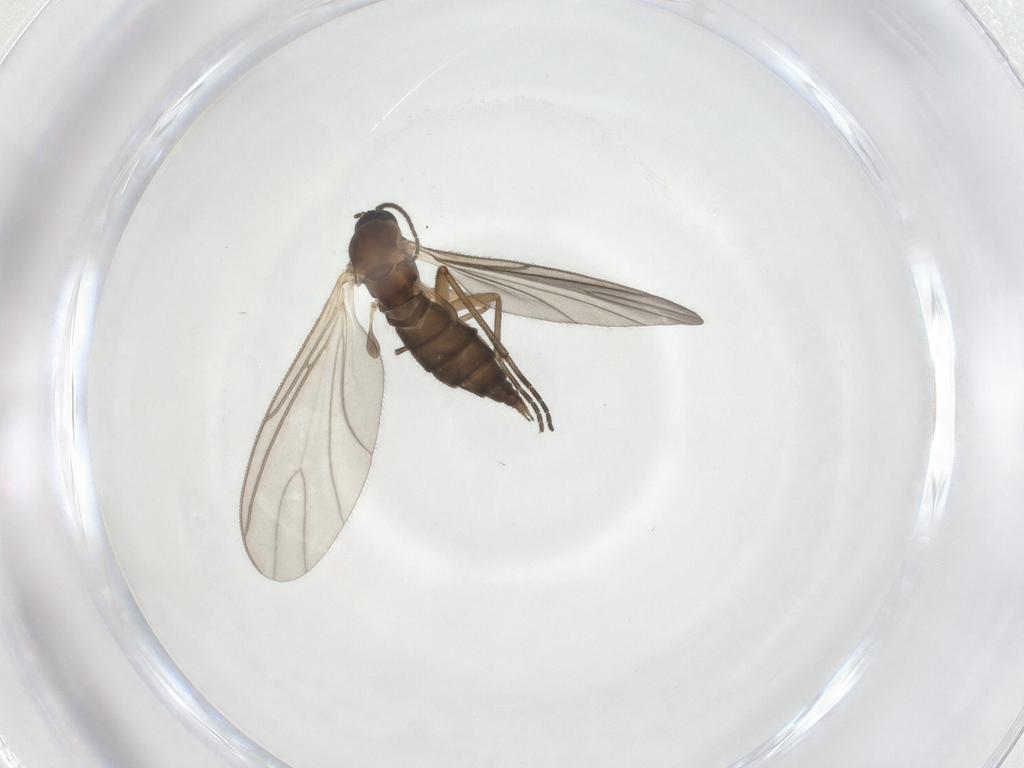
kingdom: Animalia
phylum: Arthropoda
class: Insecta
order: Diptera
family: Sciaridae
